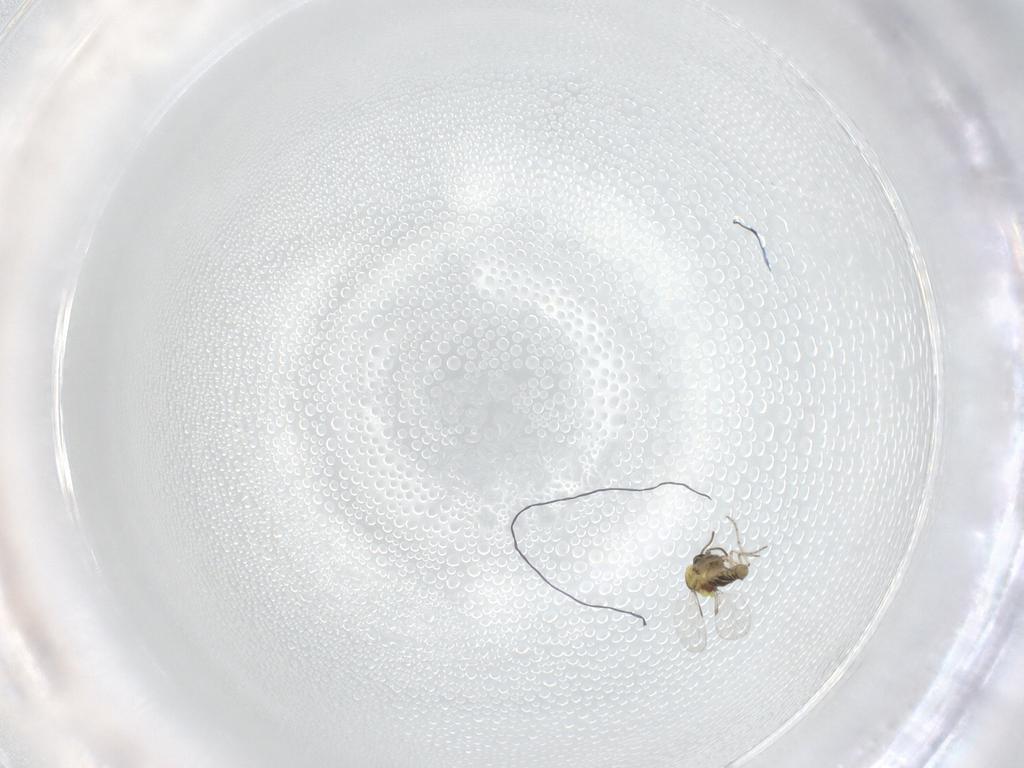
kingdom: Animalia
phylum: Arthropoda
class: Insecta
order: Diptera
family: Ceratopogonidae
